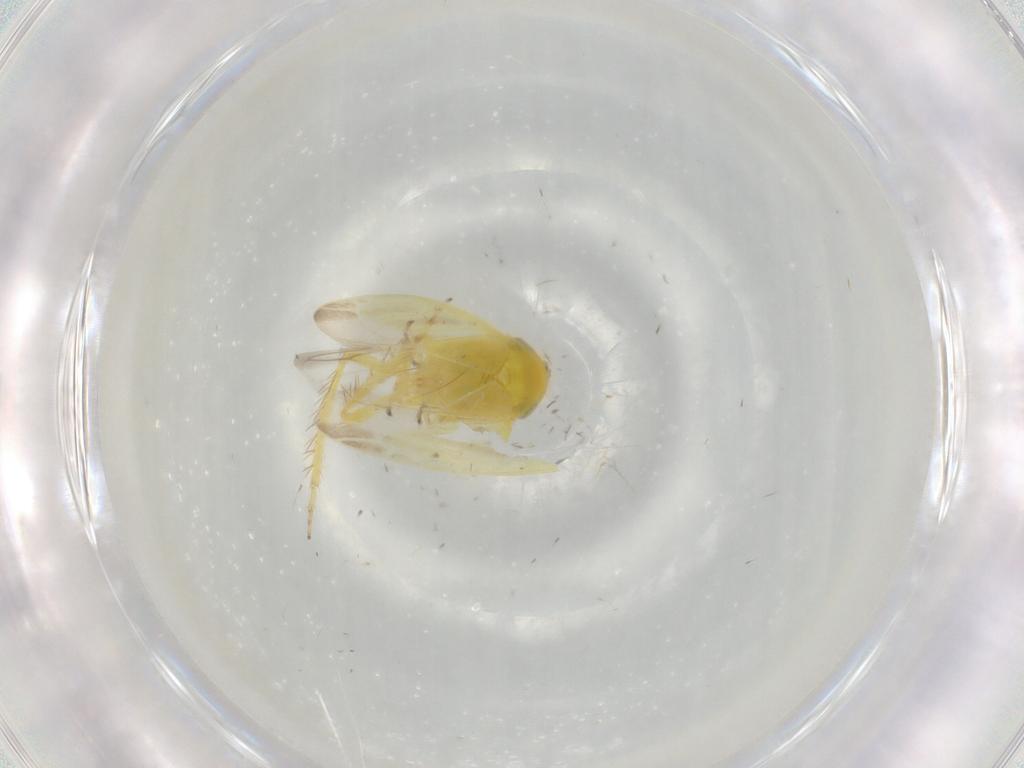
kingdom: Animalia
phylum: Arthropoda
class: Insecta
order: Hemiptera
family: Cicadellidae
